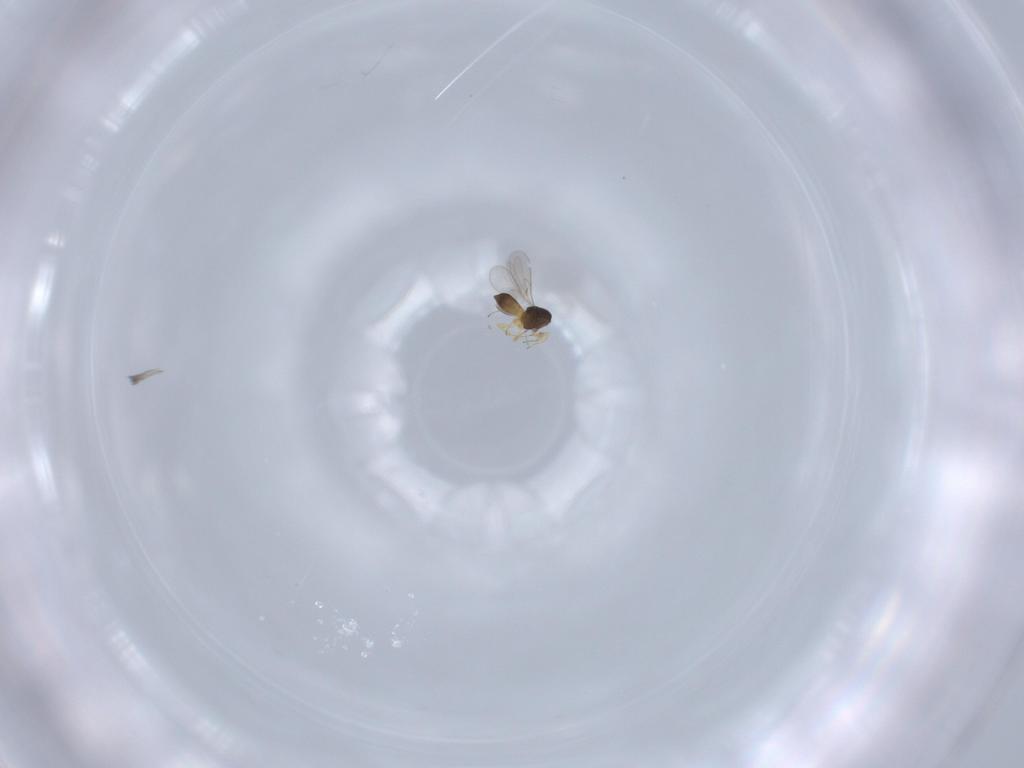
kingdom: Animalia
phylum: Arthropoda
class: Insecta
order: Hymenoptera
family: Scelionidae
